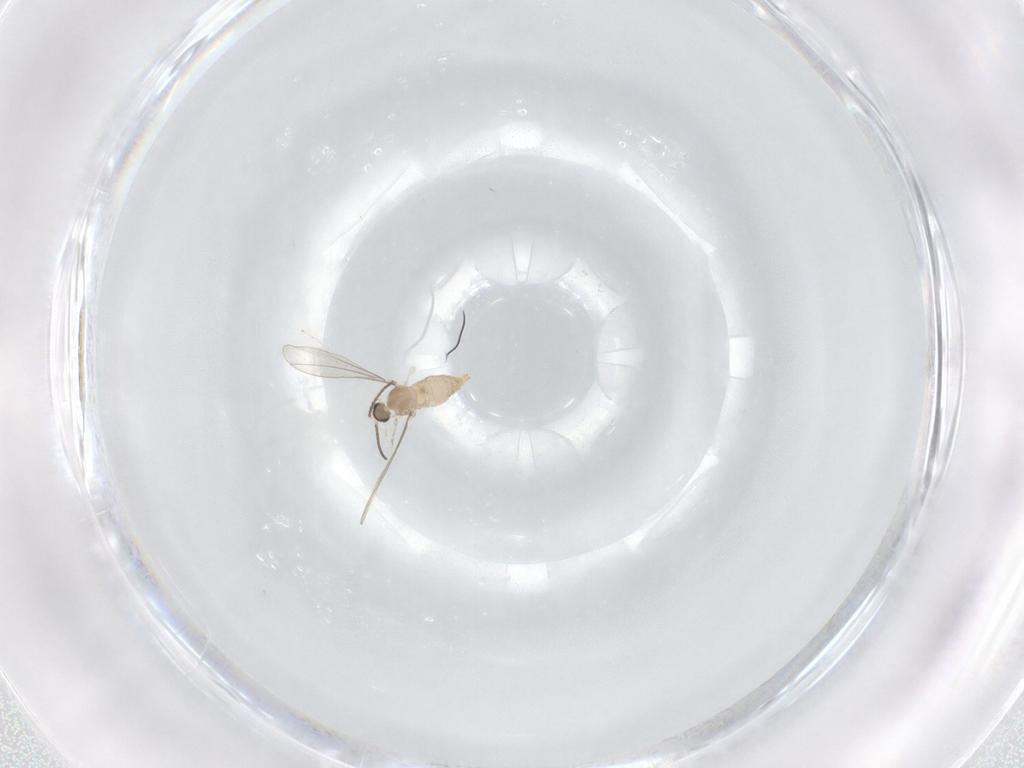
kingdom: Animalia
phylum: Arthropoda
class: Insecta
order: Diptera
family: Cecidomyiidae
